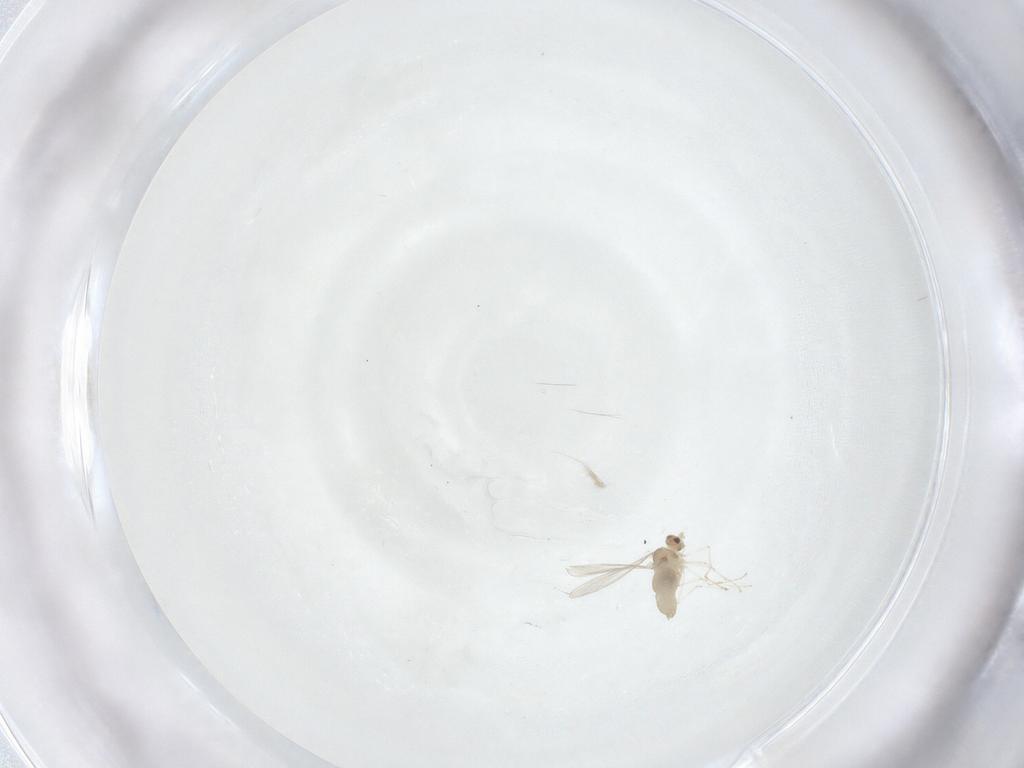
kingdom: Animalia
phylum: Arthropoda
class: Insecta
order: Diptera
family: Cecidomyiidae
